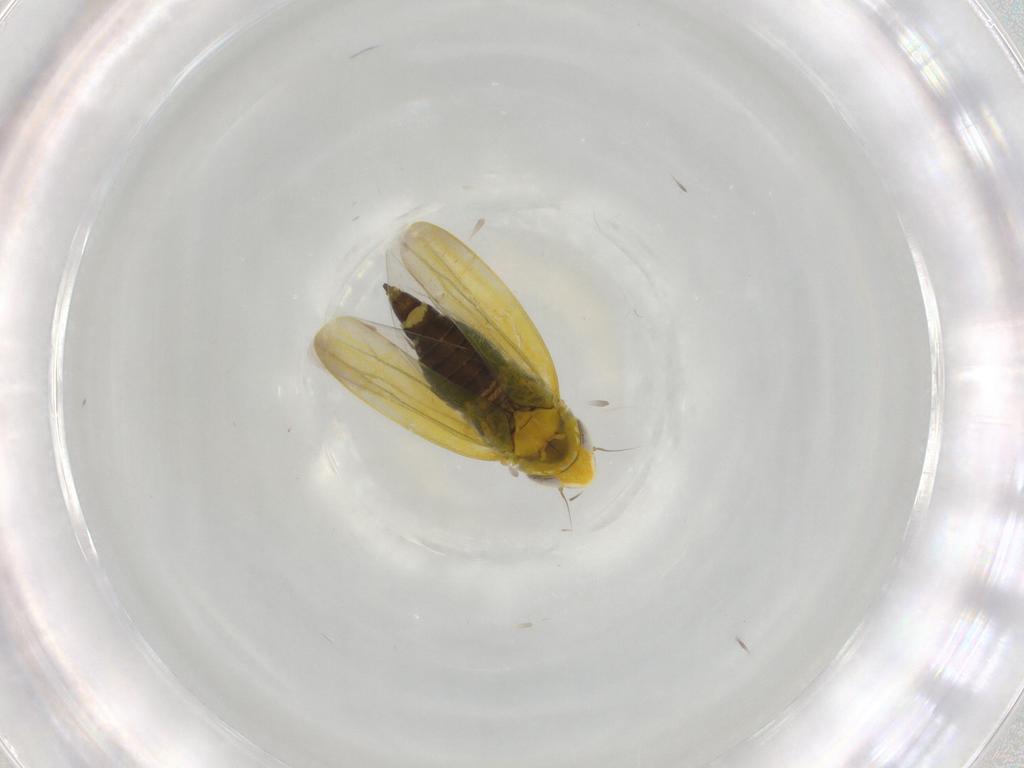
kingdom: Animalia
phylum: Arthropoda
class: Insecta
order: Hemiptera
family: Cicadellidae
